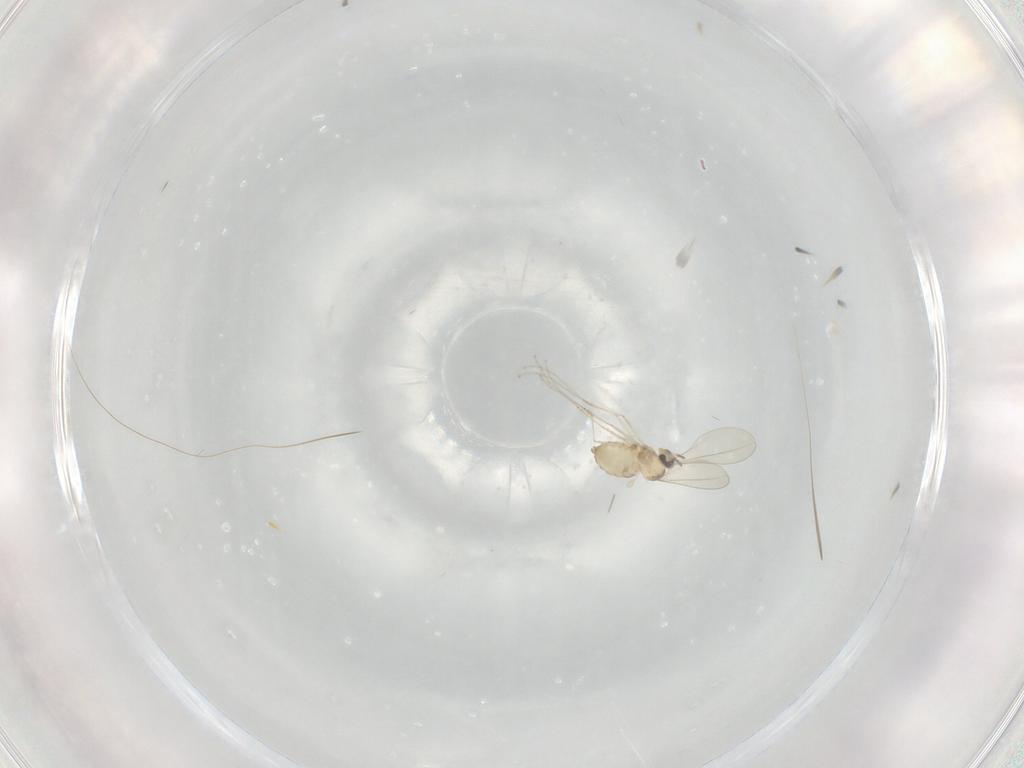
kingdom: Animalia
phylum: Arthropoda
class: Insecta
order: Diptera
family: Cecidomyiidae
